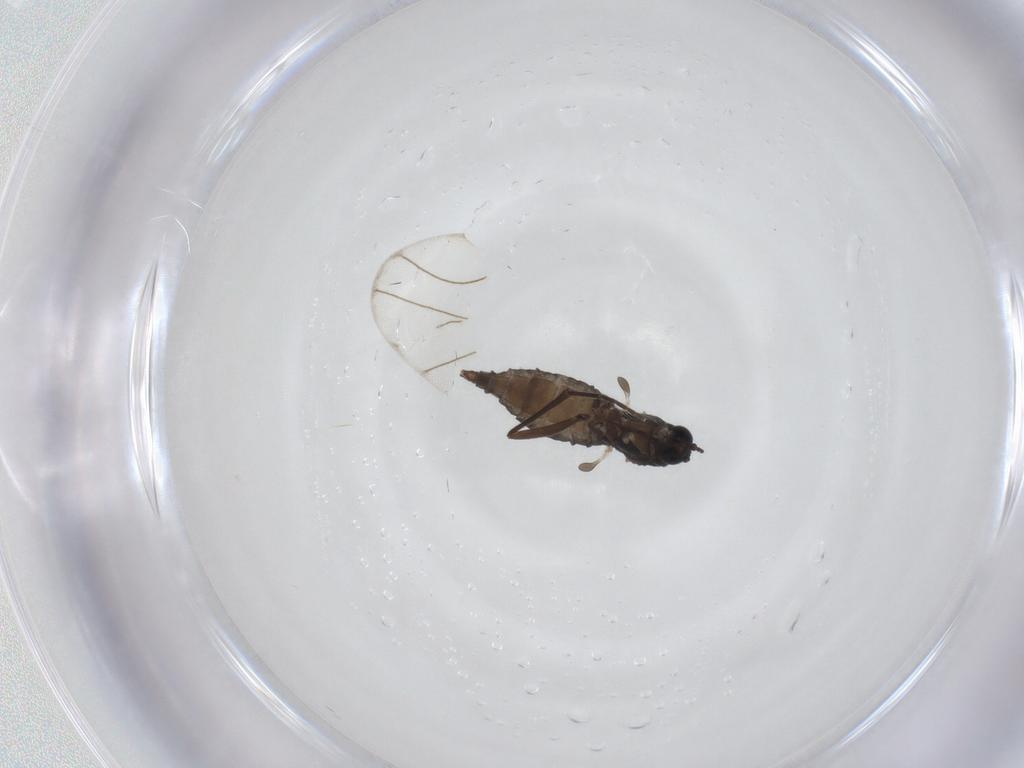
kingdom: Animalia
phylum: Arthropoda
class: Insecta
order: Diptera
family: Sciaridae
